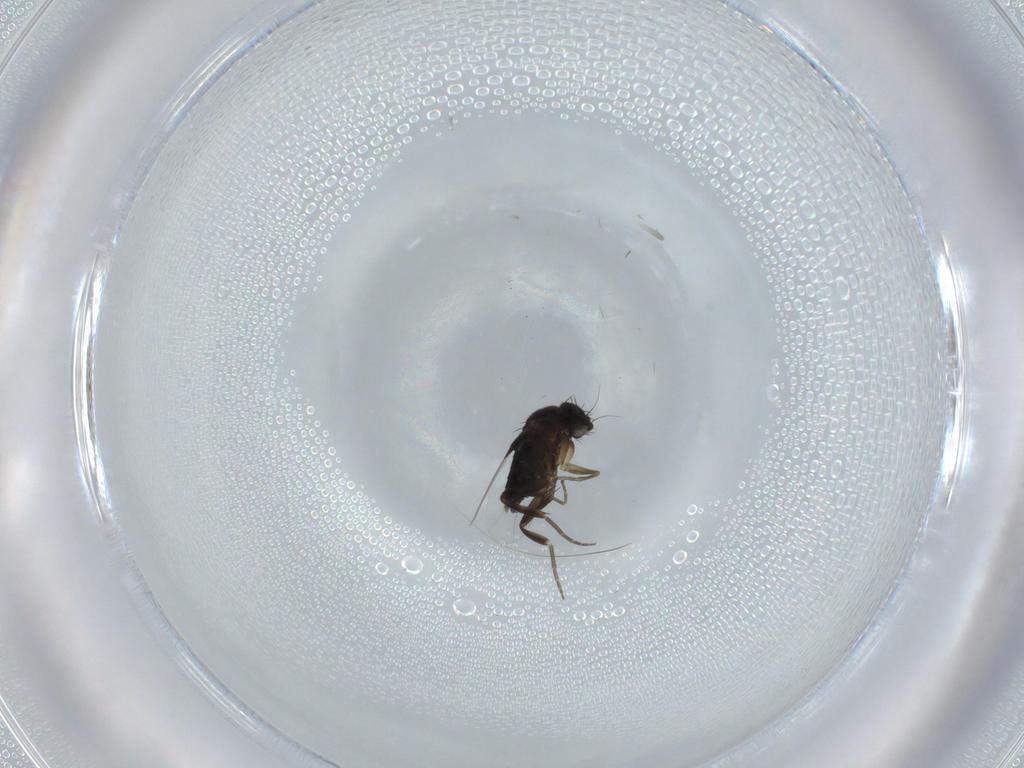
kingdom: Animalia
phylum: Arthropoda
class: Insecta
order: Diptera
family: Phoridae
